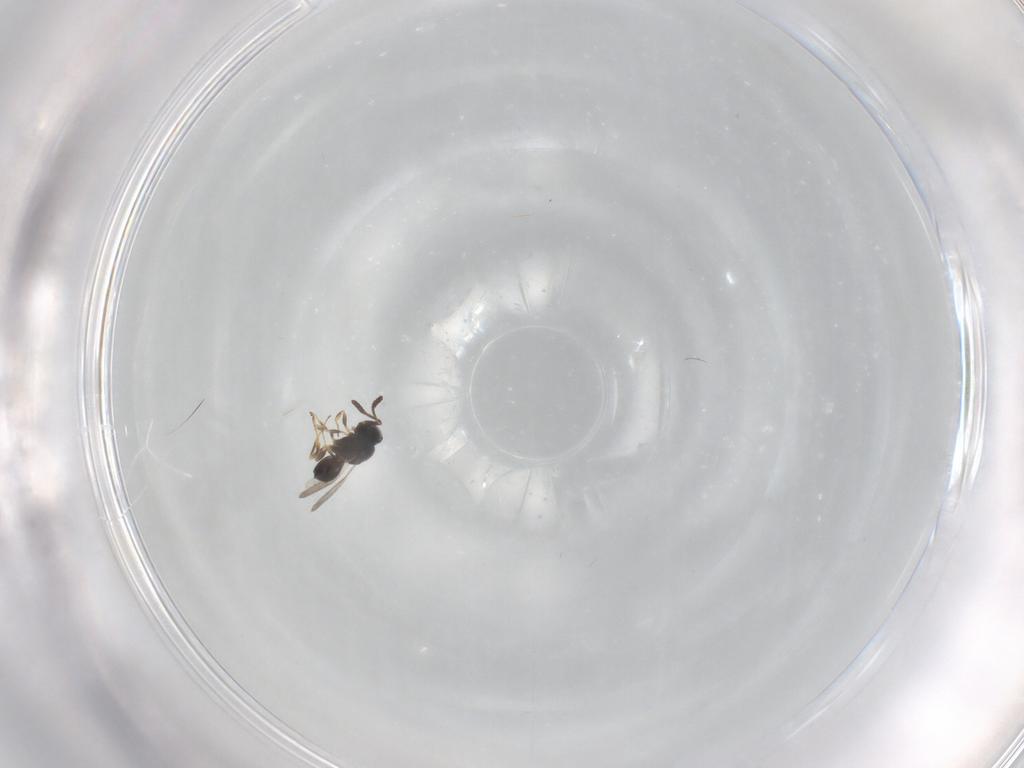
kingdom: Animalia
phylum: Arthropoda
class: Insecta
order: Hymenoptera
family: Scelionidae
